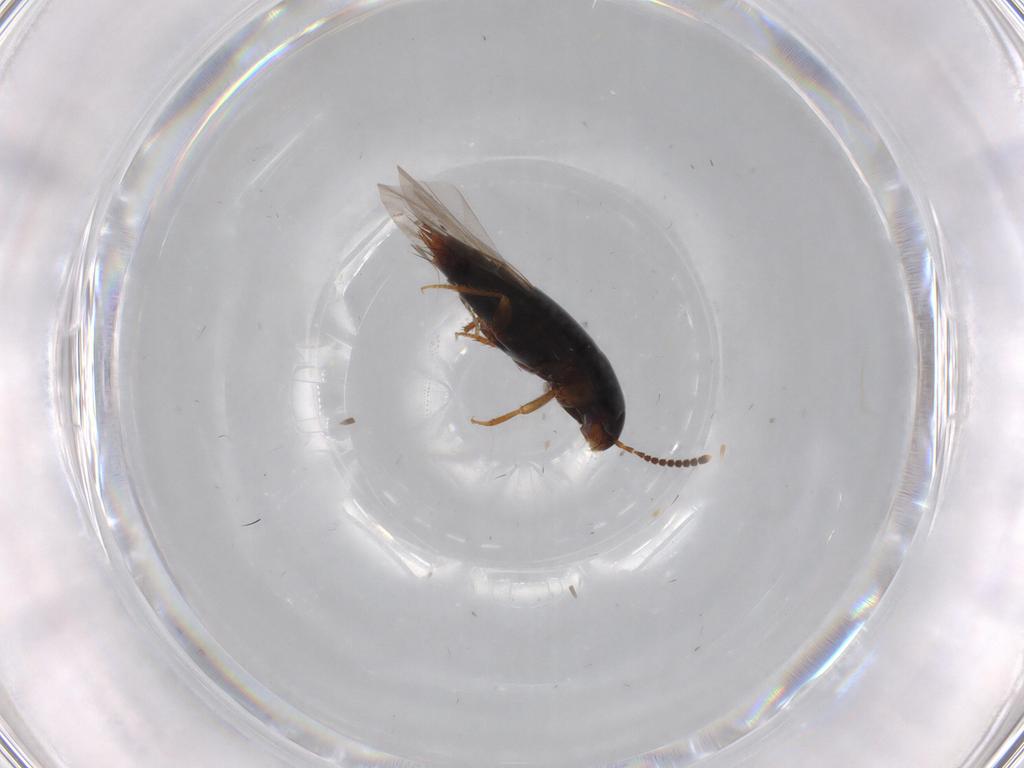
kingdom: Animalia
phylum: Arthropoda
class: Insecta
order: Coleoptera
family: Staphylinidae
